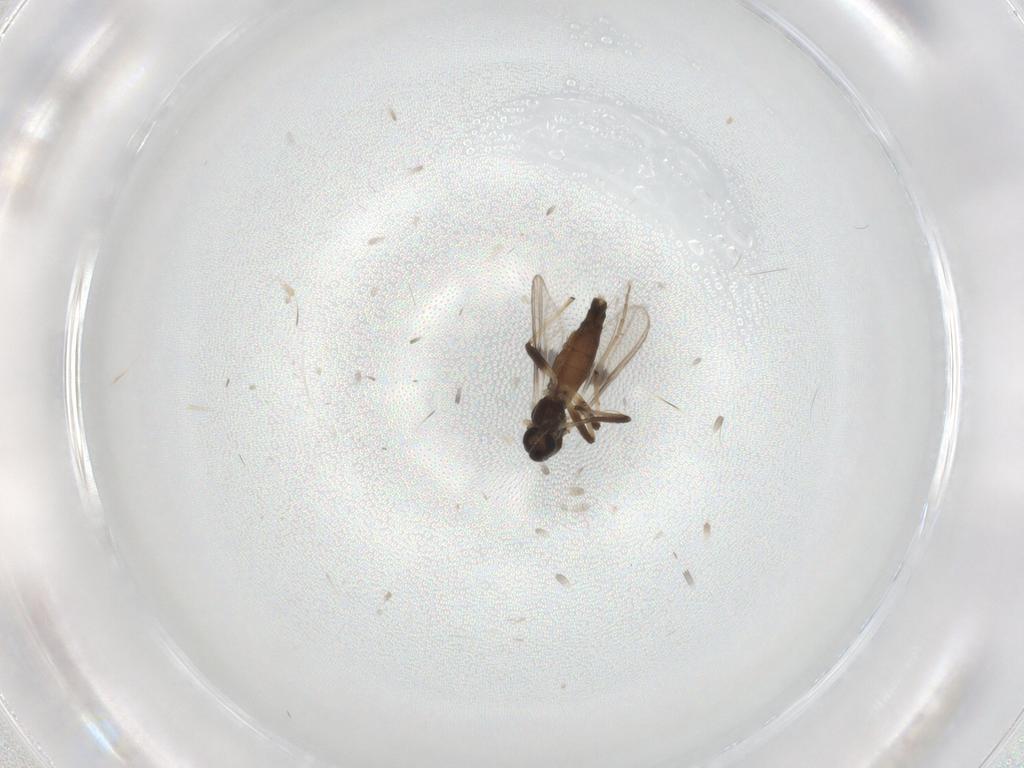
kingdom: Animalia
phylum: Arthropoda
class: Insecta
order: Diptera
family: Chironomidae
